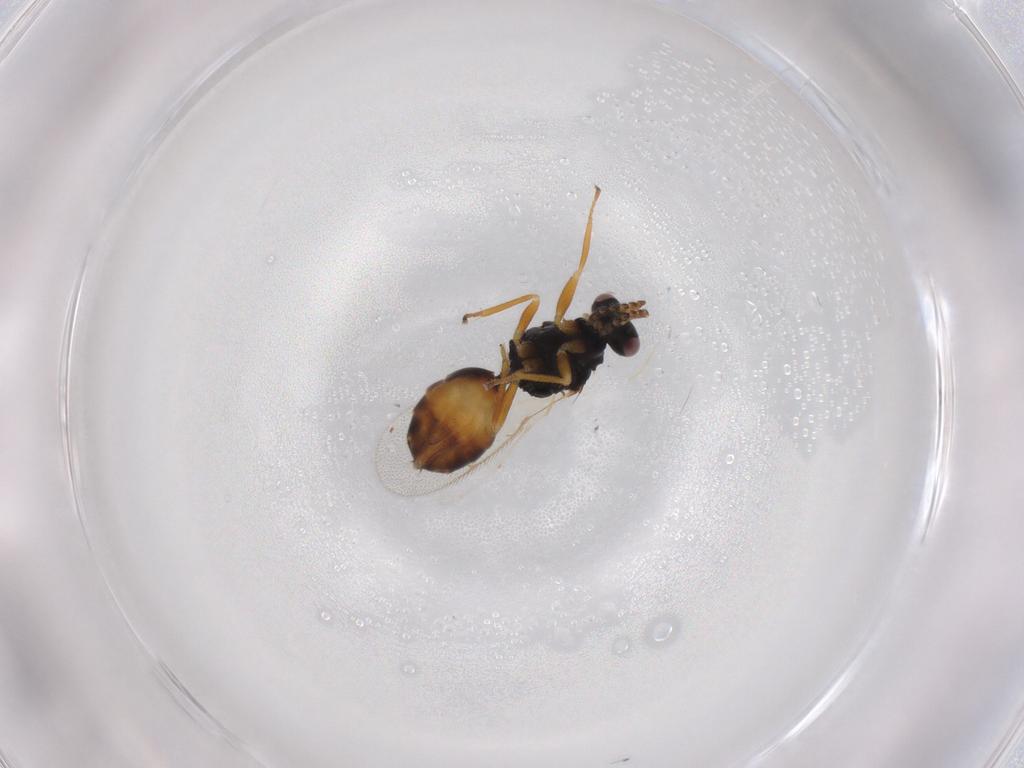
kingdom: Animalia
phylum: Arthropoda
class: Insecta
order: Hymenoptera
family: Eulophidae
